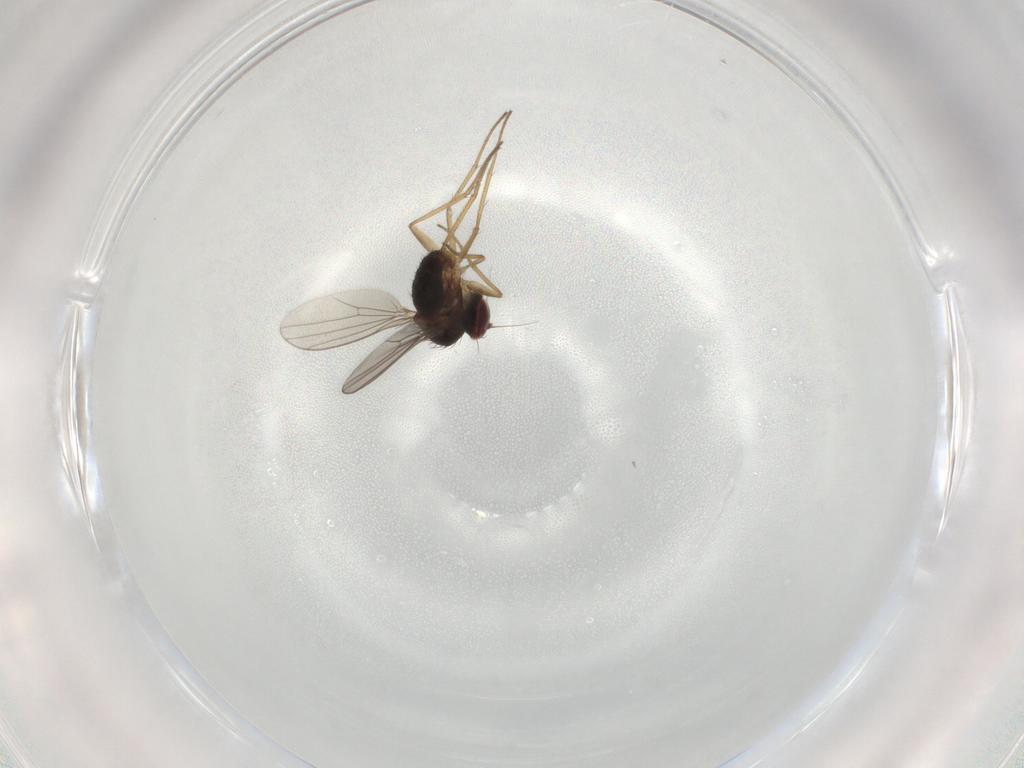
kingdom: Animalia
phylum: Arthropoda
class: Insecta
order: Diptera
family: Dolichopodidae
